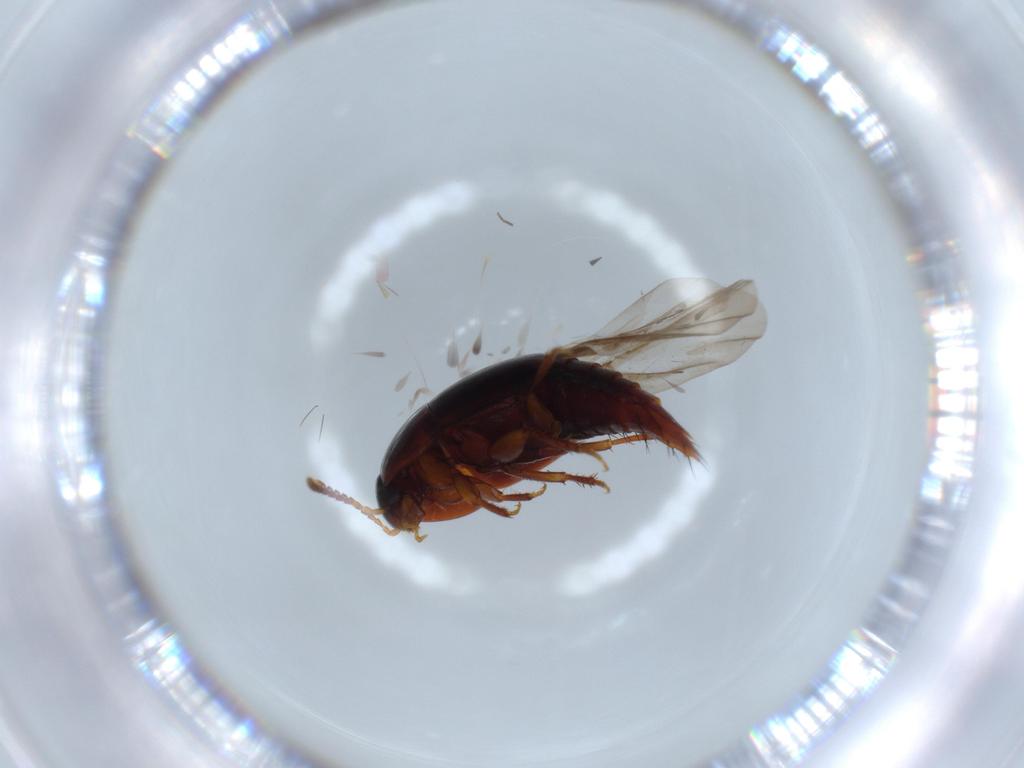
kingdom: Animalia
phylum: Arthropoda
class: Insecta
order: Coleoptera
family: Staphylinidae
